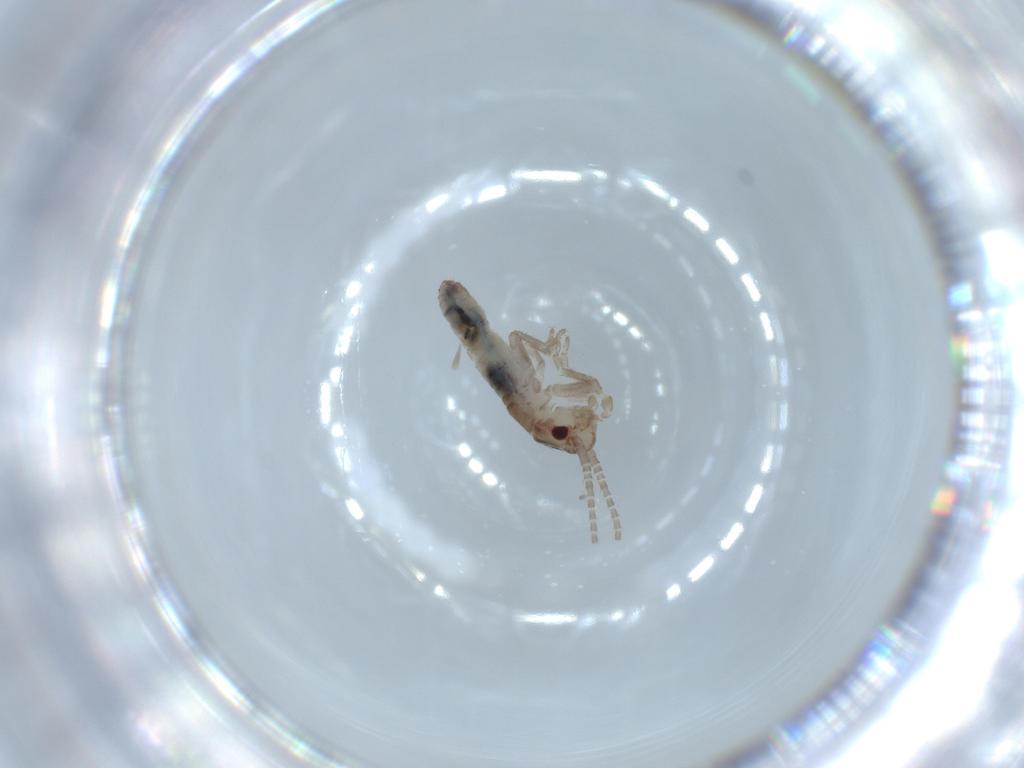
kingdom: Animalia
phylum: Arthropoda
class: Insecta
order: Orthoptera
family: Mogoplistidae
